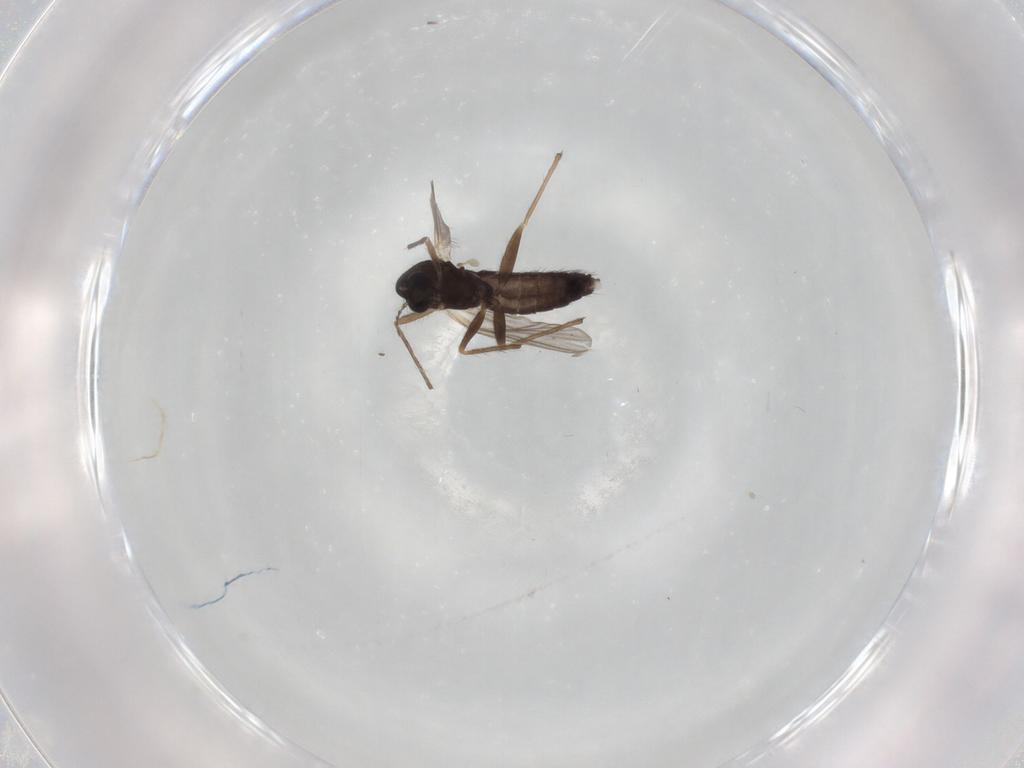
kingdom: Animalia
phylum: Arthropoda
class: Insecta
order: Diptera
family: Chironomidae
